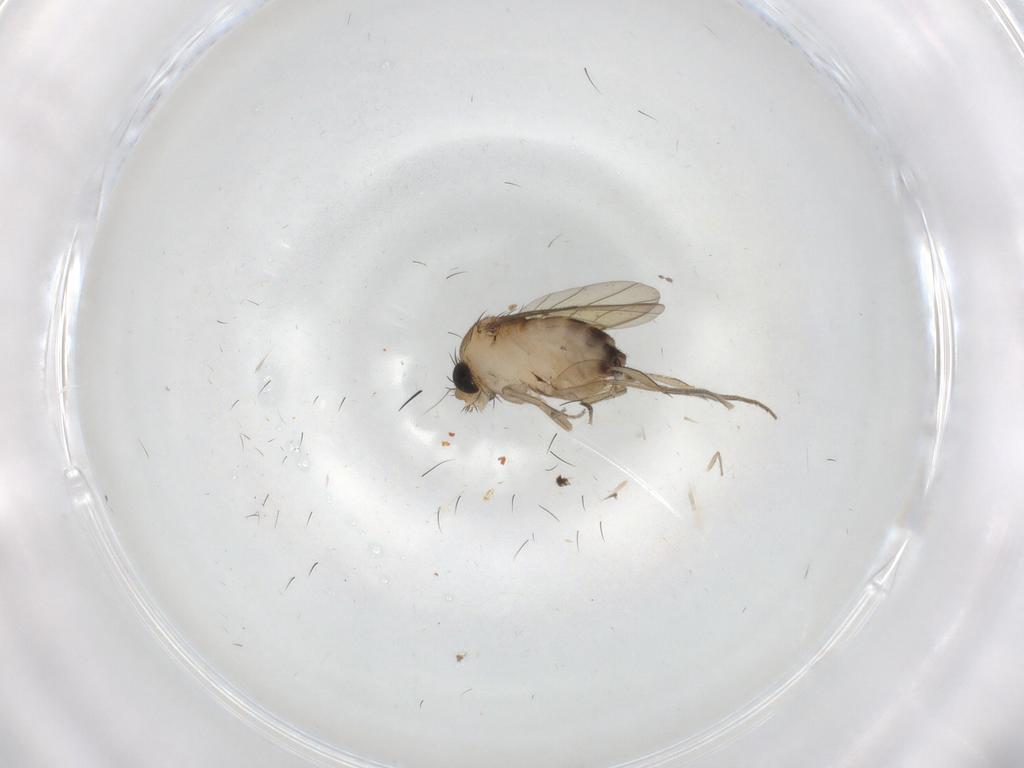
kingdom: Animalia
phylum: Arthropoda
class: Insecta
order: Diptera
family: Phoridae
